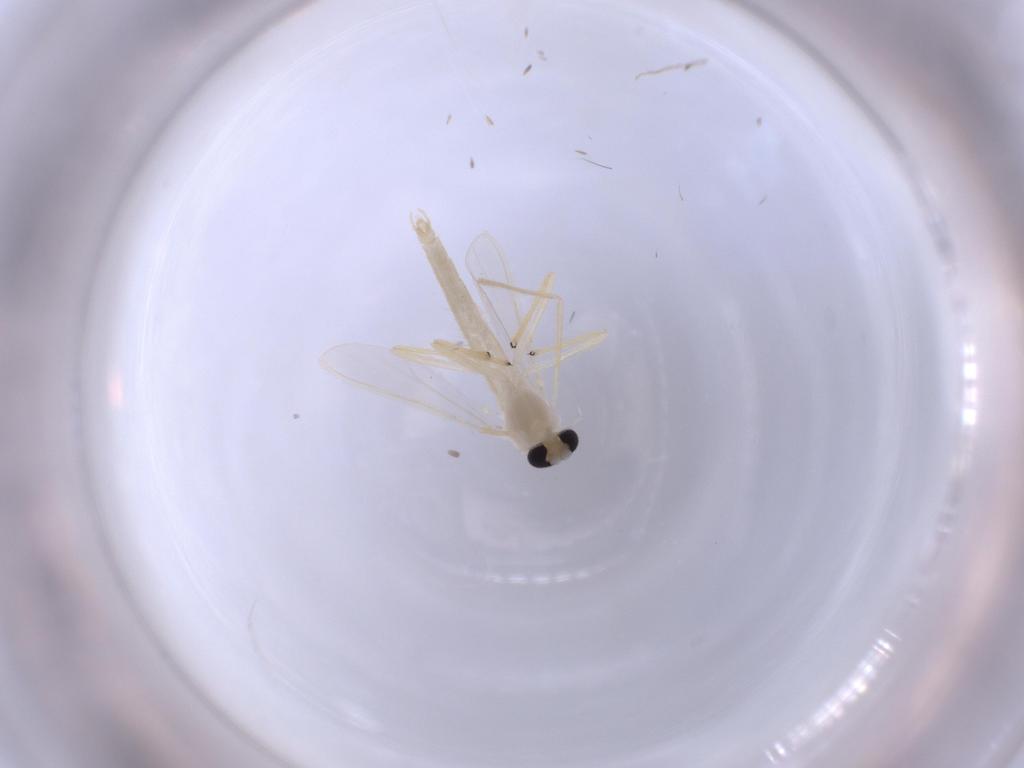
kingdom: Animalia
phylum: Arthropoda
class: Insecta
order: Diptera
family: Chironomidae
